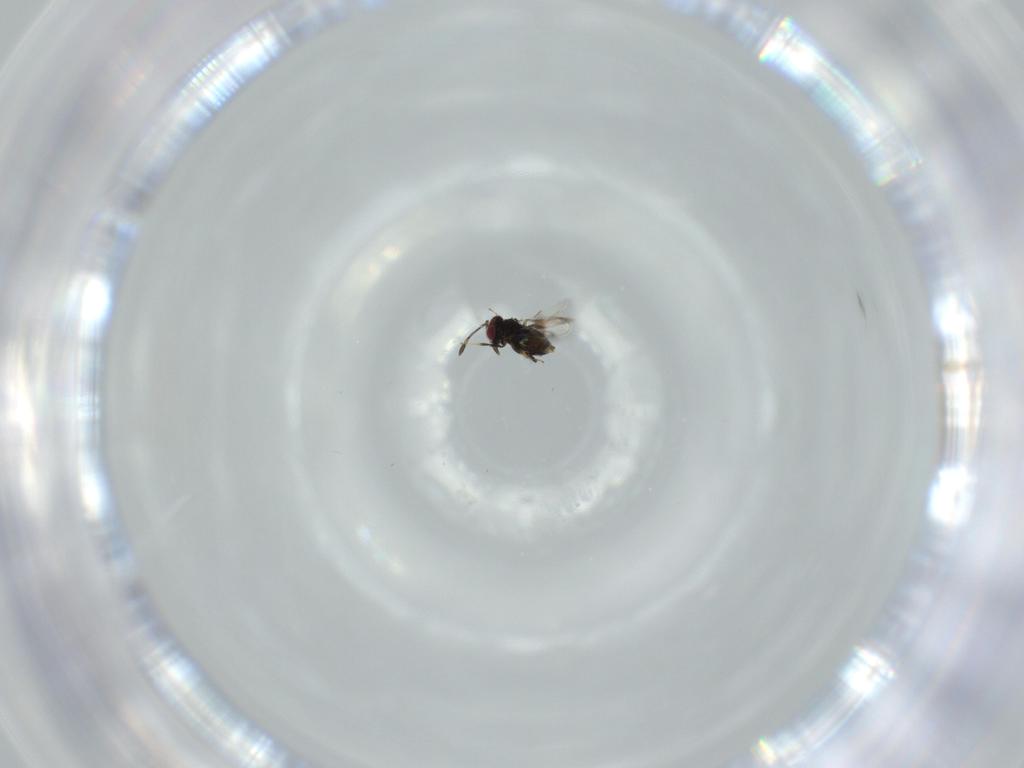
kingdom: Animalia
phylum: Arthropoda
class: Insecta
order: Hymenoptera
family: Azotidae
